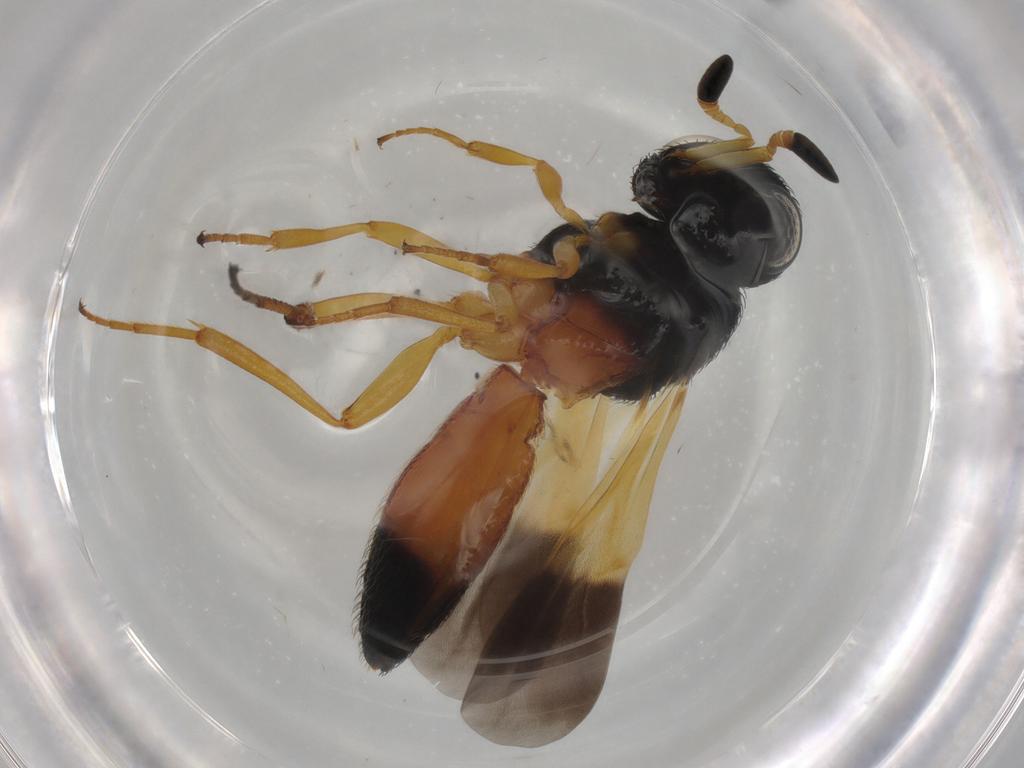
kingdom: Animalia
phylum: Arthropoda
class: Insecta
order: Hymenoptera
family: Scelionidae
